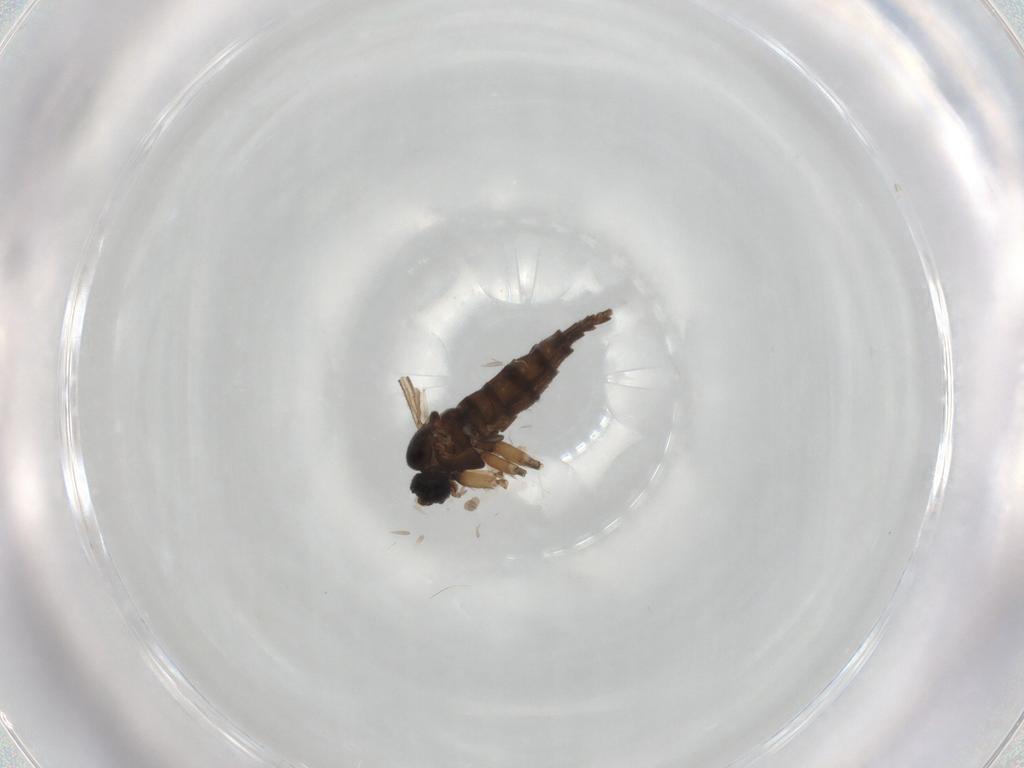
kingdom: Animalia
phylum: Arthropoda
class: Insecta
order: Diptera
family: Sciaridae
